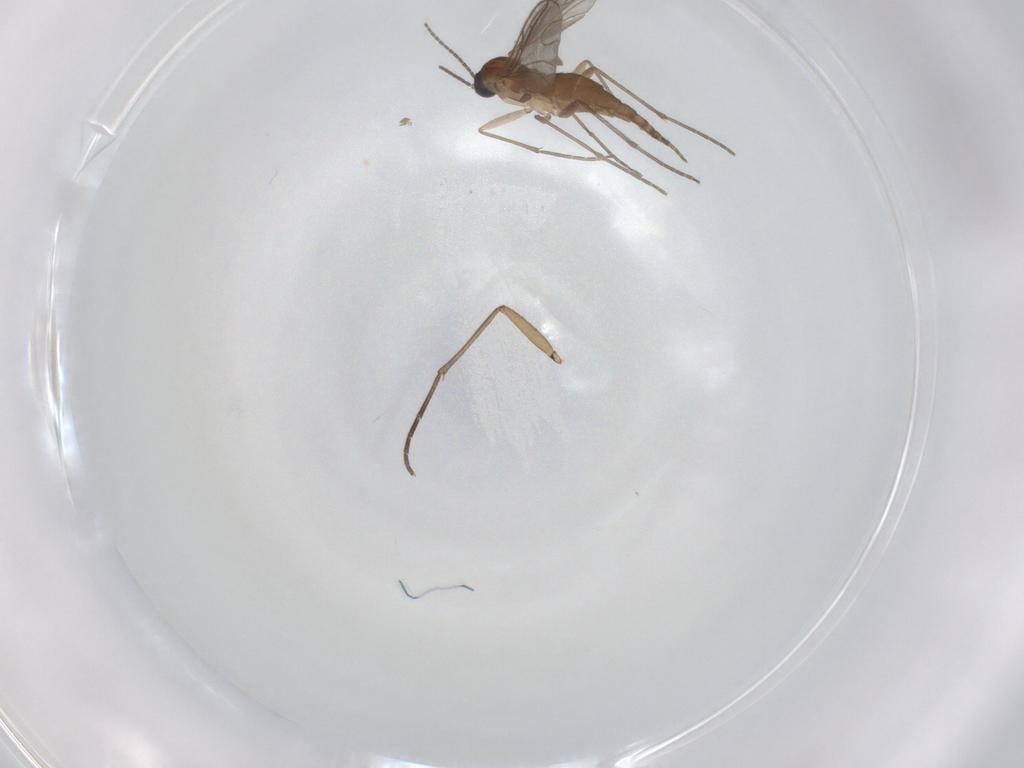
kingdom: Animalia
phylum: Arthropoda
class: Insecta
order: Diptera
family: Sciaridae
